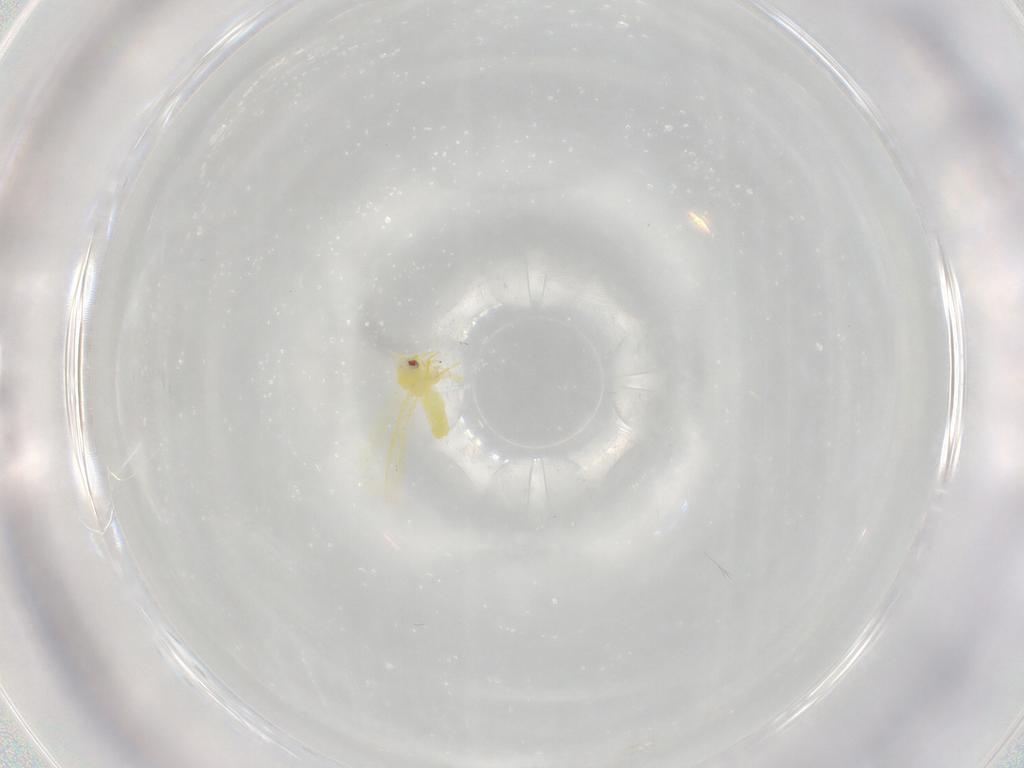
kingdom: Animalia
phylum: Arthropoda
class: Insecta
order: Hemiptera
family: Aleyrodidae
